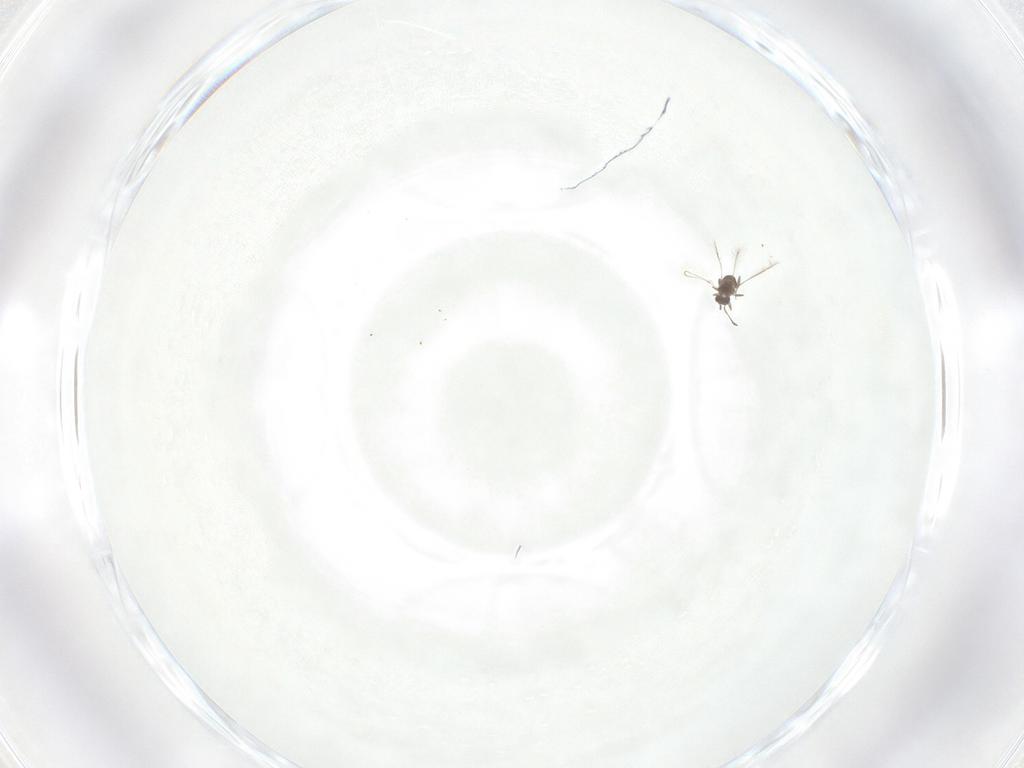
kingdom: Animalia
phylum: Arthropoda
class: Insecta
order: Hymenoptera
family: Mymaridae
